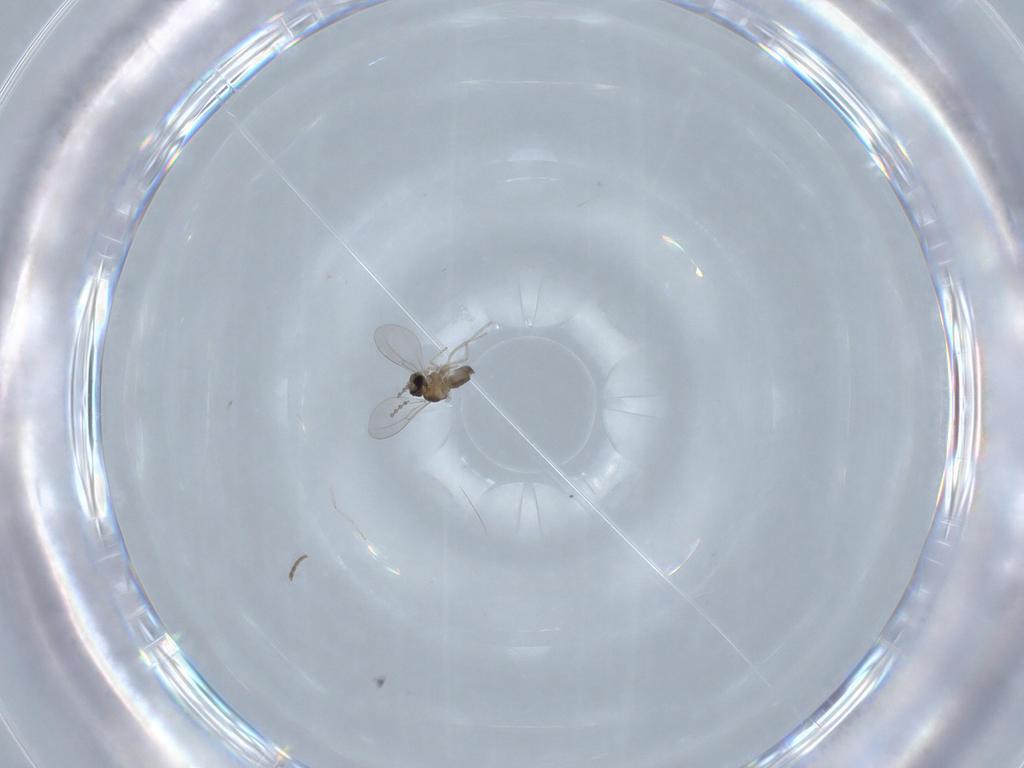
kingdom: Animalia
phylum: Arthropoda
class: Insecta
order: Diptera
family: Cecidomyiidae
